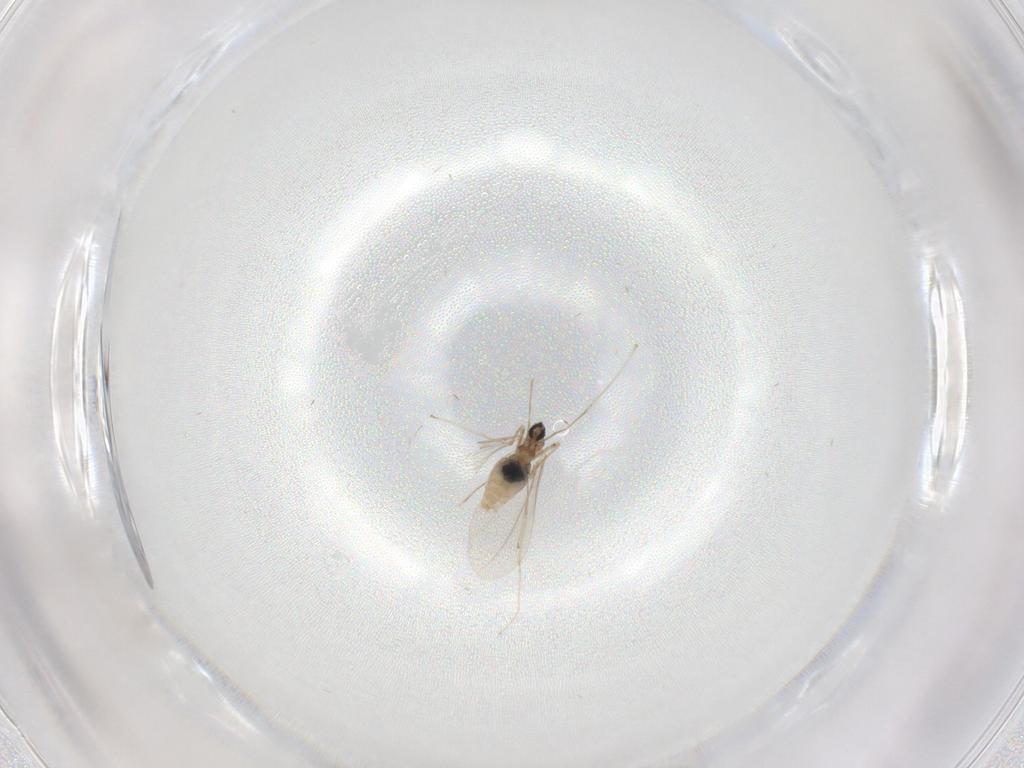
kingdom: Animalia
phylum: Arthropoda
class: Insecta
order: Diptera
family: Cecidomyiidae
